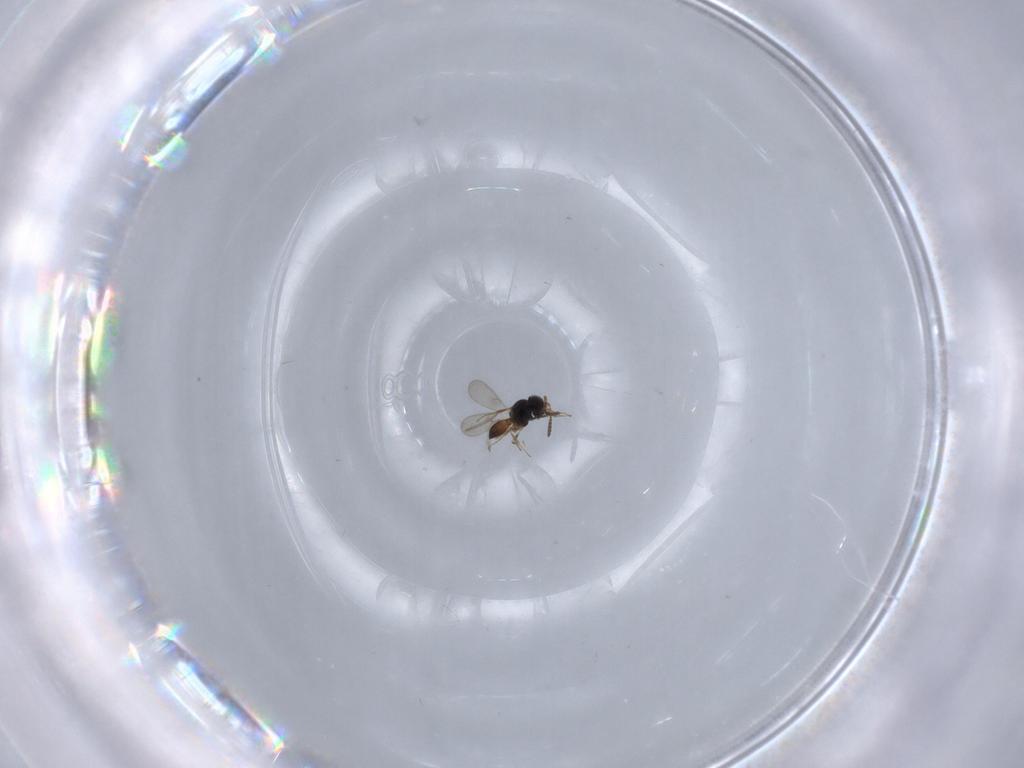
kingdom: Animalia
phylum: Arthropoda
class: Insecta
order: Hymenoptera
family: Scelionidae
